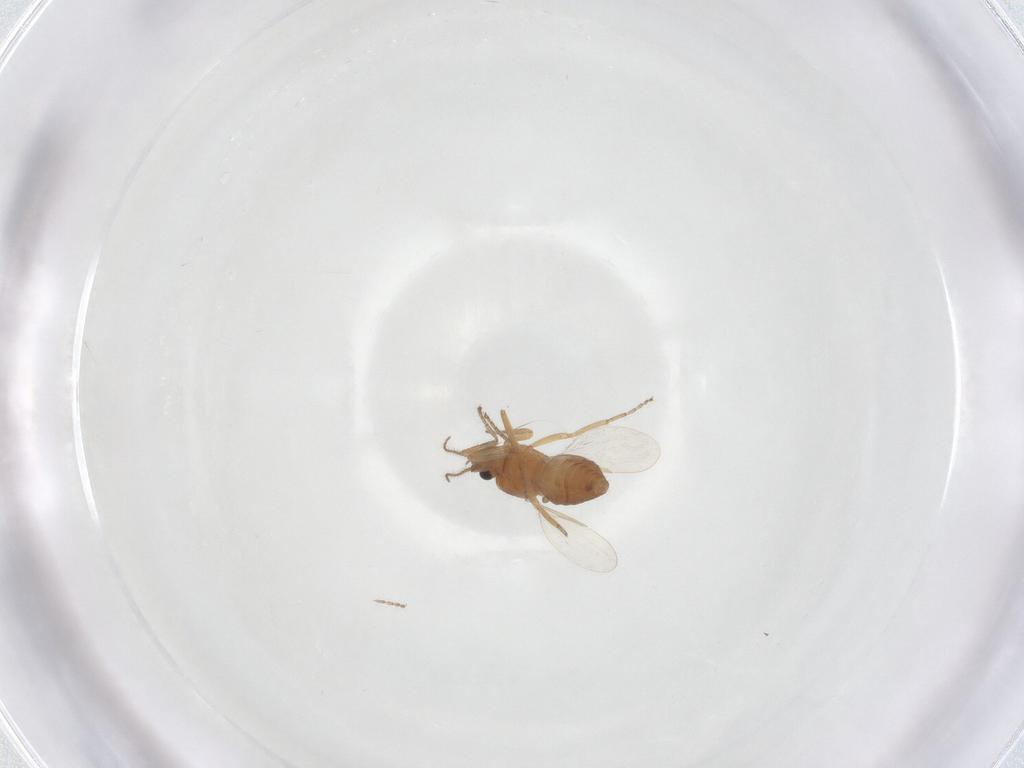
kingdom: Animalia
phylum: Arthropoda
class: Insecta
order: Diptera
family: Ceratopogonidae
